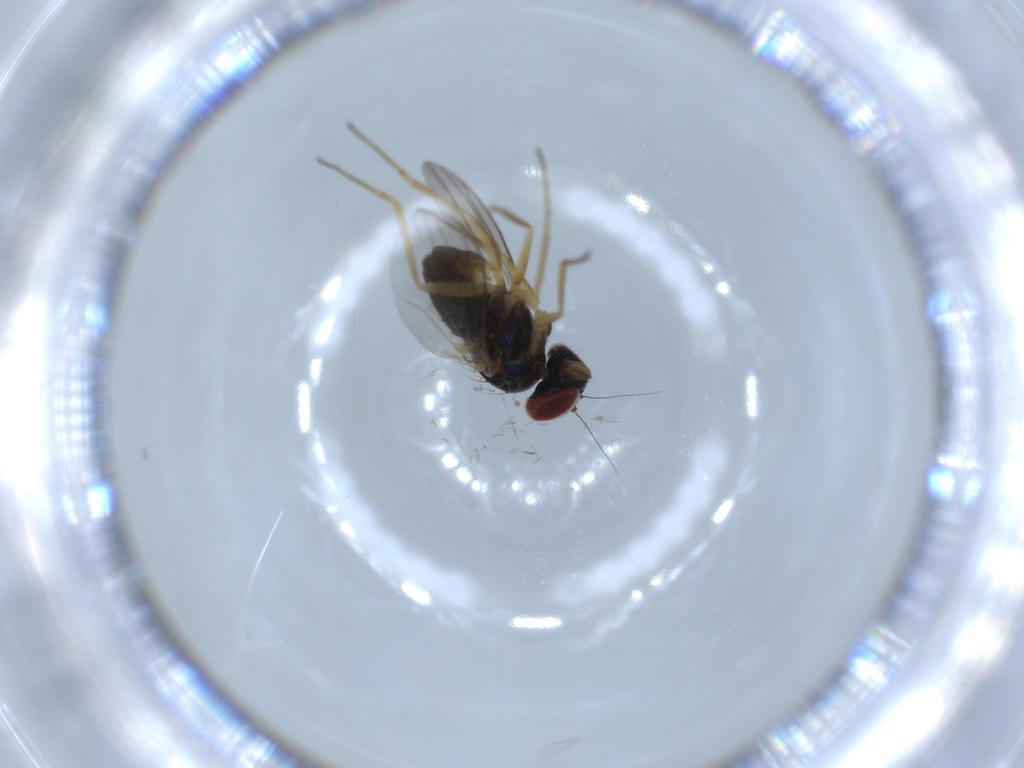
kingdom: Animalia
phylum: Arthropoda
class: Insecta
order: Diptera
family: Dolichopodidae
